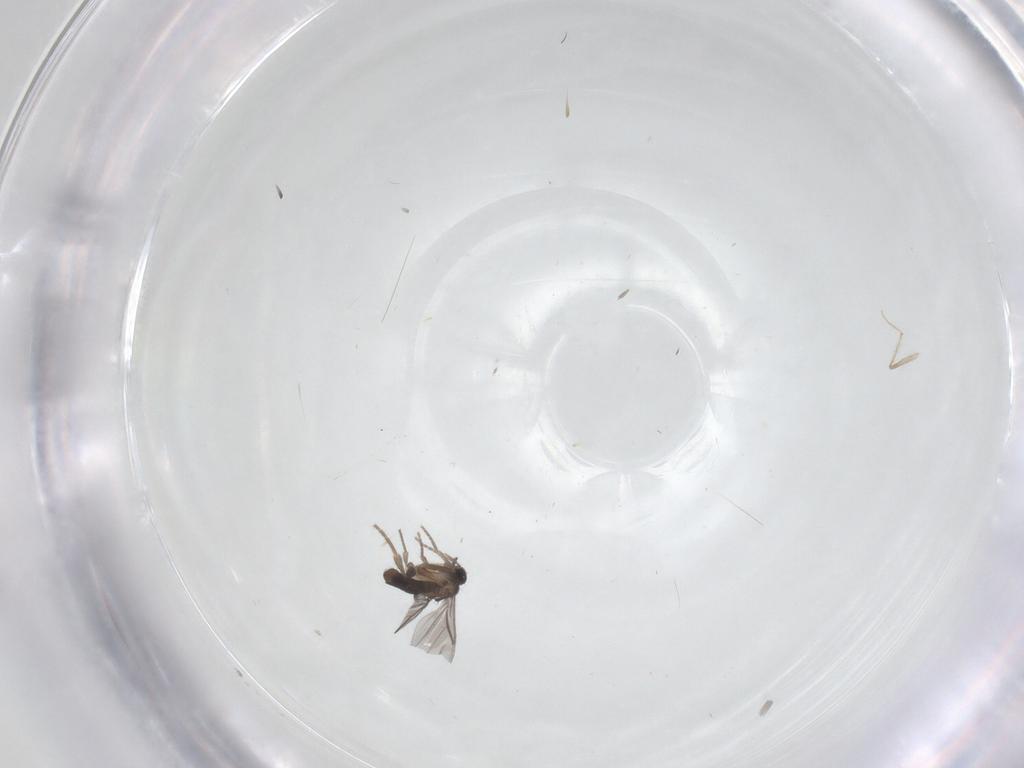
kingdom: Animalia
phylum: Arthropoda
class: Insecta
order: Diptera
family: Chironomidae
